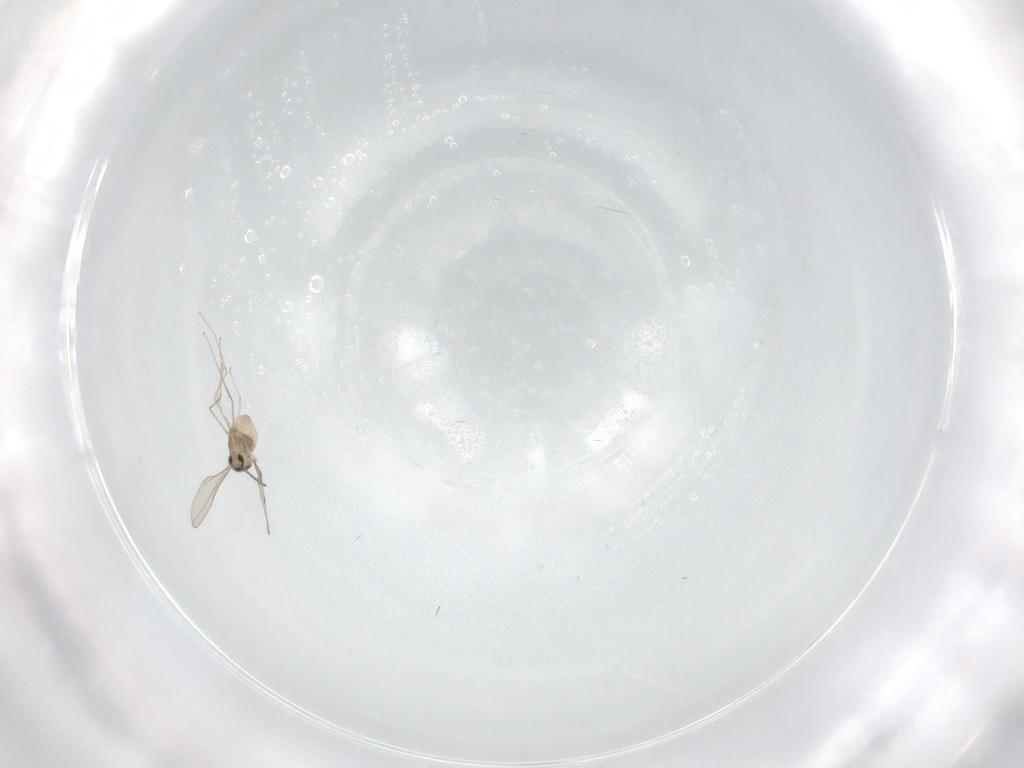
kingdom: Animalia
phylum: Arthropoda
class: Insecta
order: Diptera
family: Cecidomyiidae
